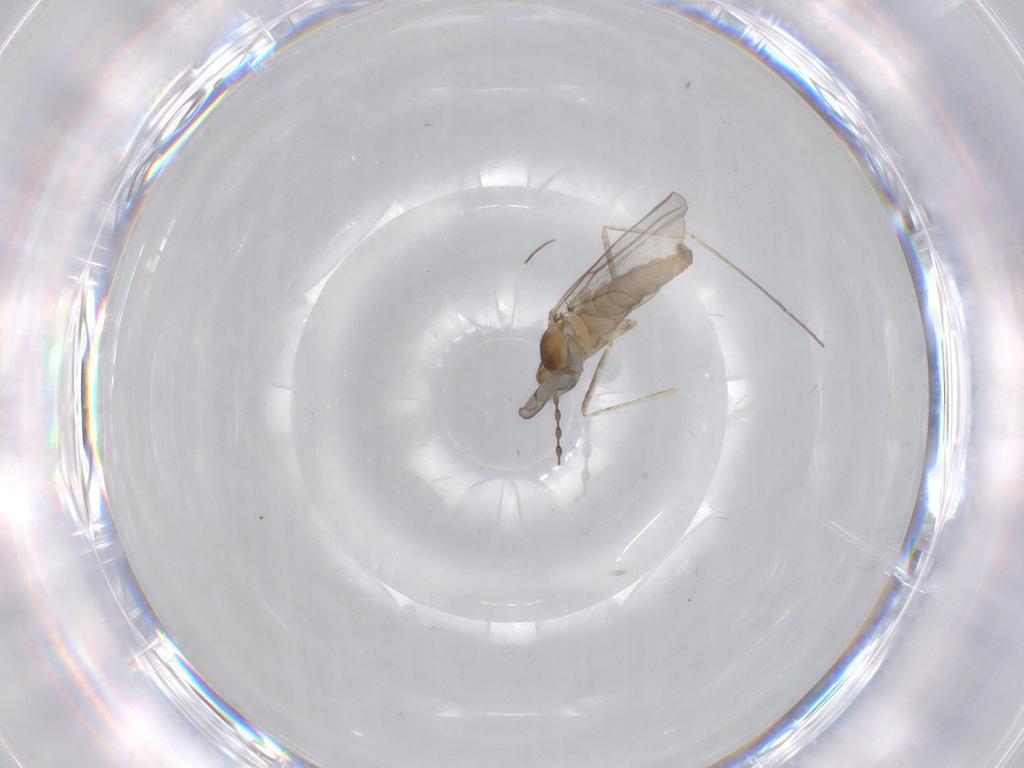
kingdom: Animalia
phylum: Arthropoda
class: Insecta
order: Diptera
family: Cecidomyiidae
